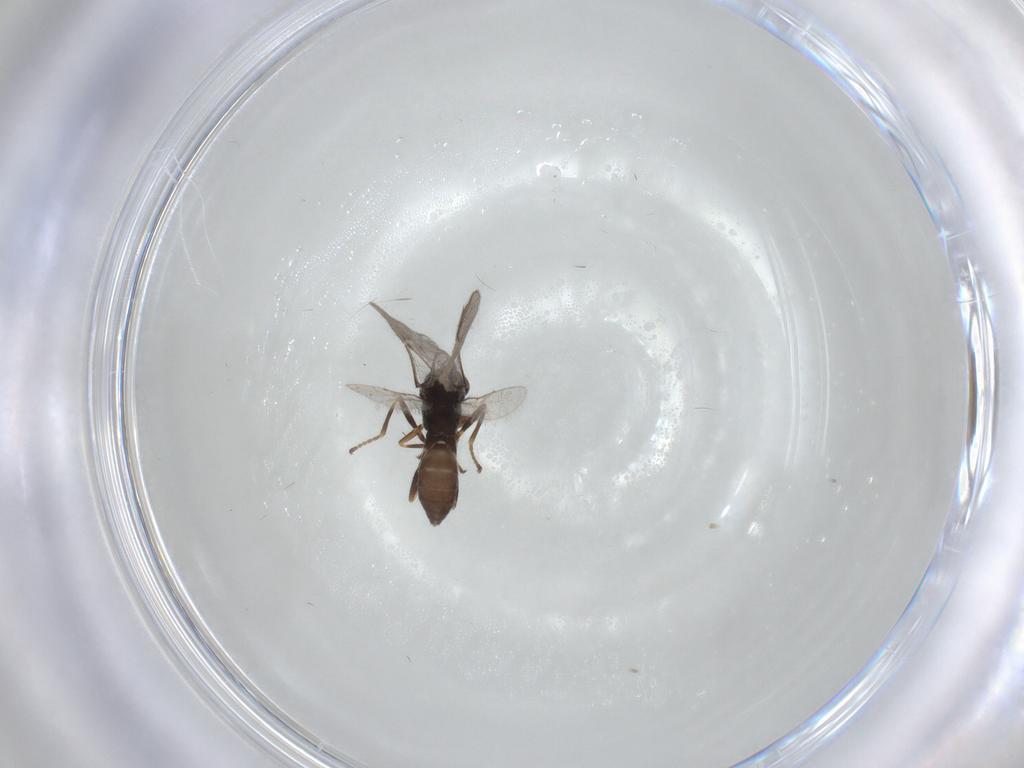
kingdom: Animalia
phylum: Arthropoda
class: Insecta
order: Hymenoptera
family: Braconidae
